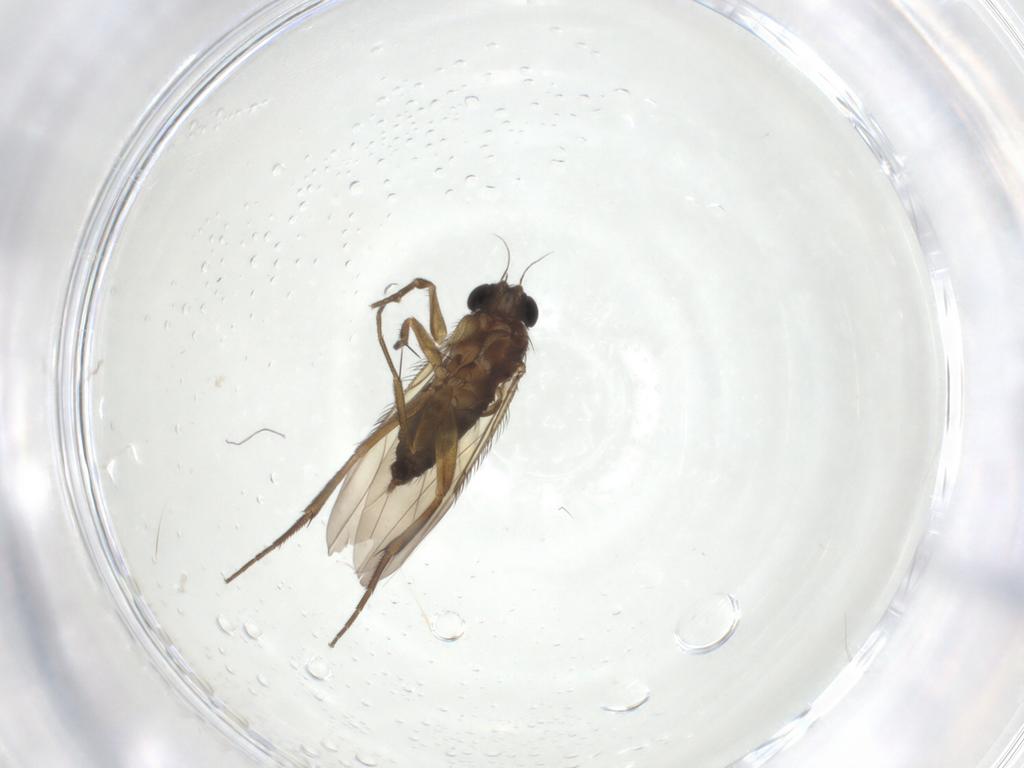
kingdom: Animalia
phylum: Arthropoda
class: Insecta
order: Diptera
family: Phoridae
